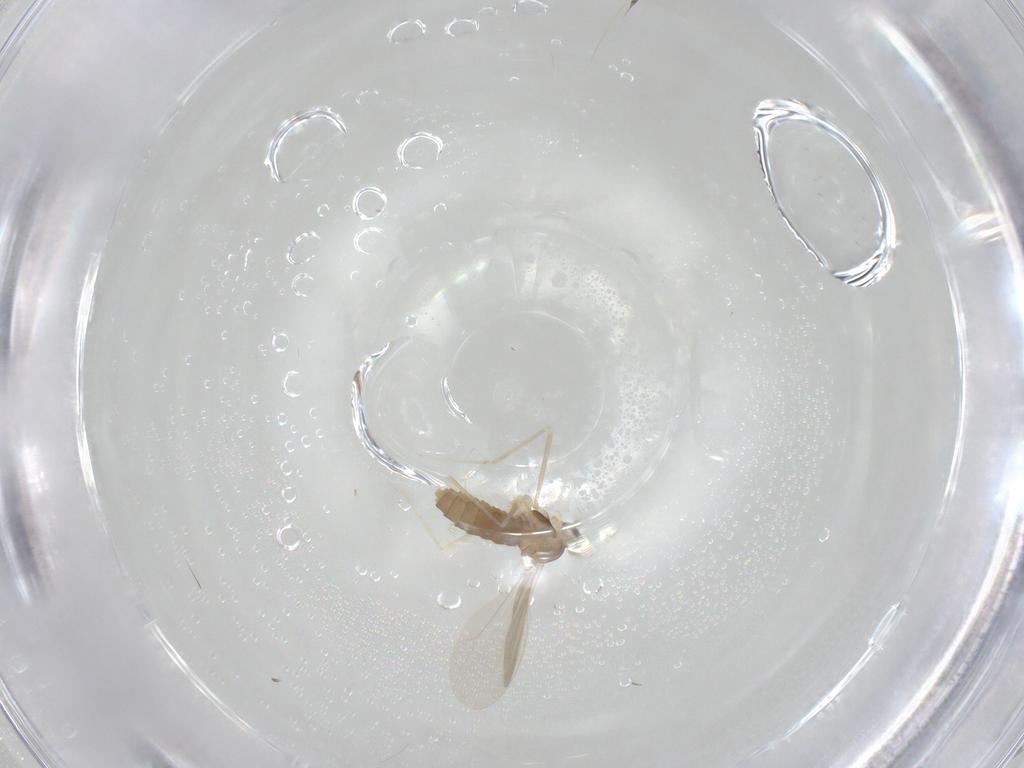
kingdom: Animalia
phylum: Arthropoda
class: Insecta
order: Diptera
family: Chironomidae
